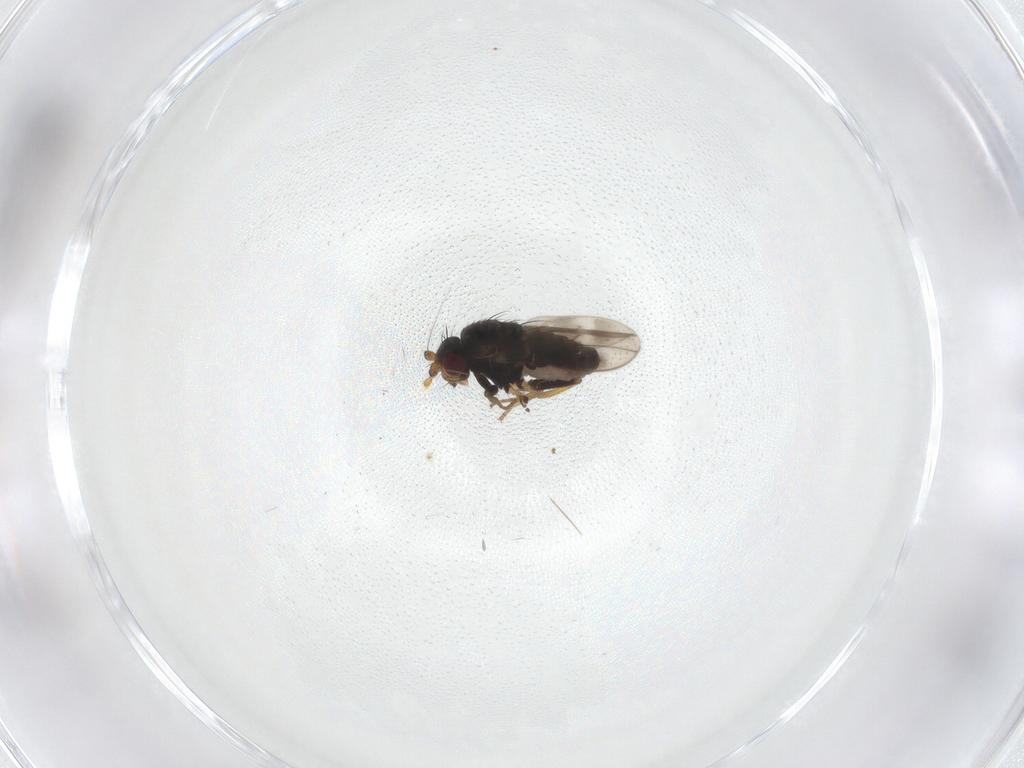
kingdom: Animalia
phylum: Arthropoda
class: Insecta
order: Diptera
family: Sphaeroceridae
